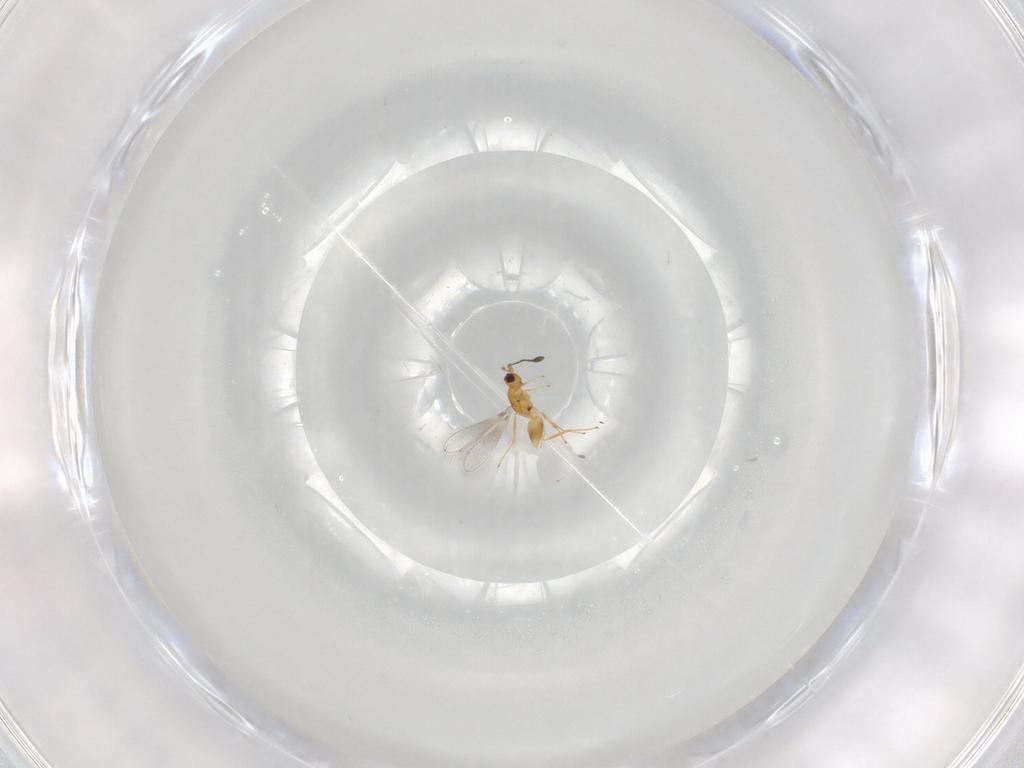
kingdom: Animalia
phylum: Arthropoda
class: Insecta
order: Hymenoptera
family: Mymaridae
